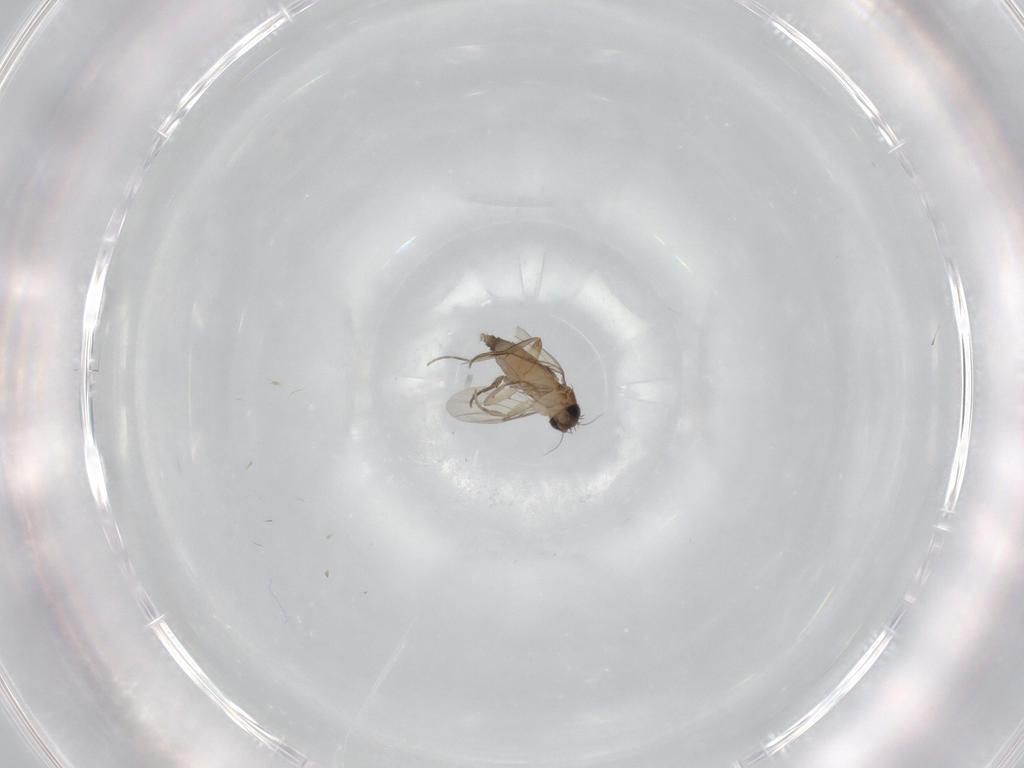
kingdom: Animalia
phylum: Arthropoda
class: Insecta
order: Diptera
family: Phoridae
